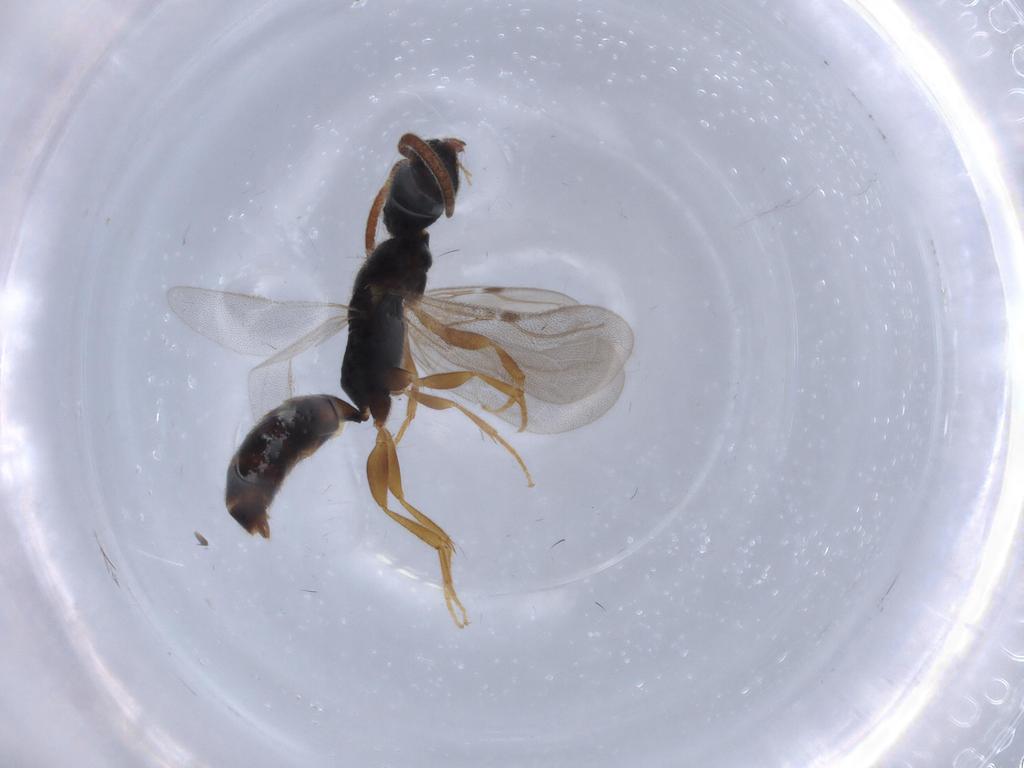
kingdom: Animalia
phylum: Arthropoda
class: Insecta
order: Hymenoptera
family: Bethylidae
